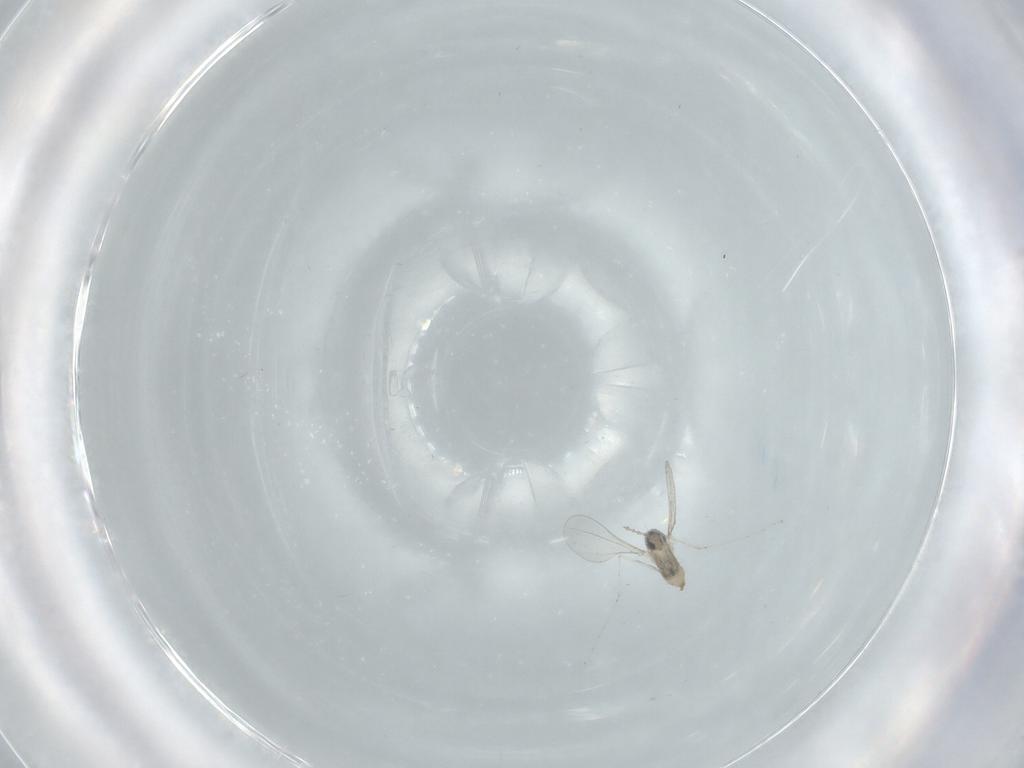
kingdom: Animalia
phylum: Arthropoda
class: Insecta
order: Diptera
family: Cecidomyiidae
